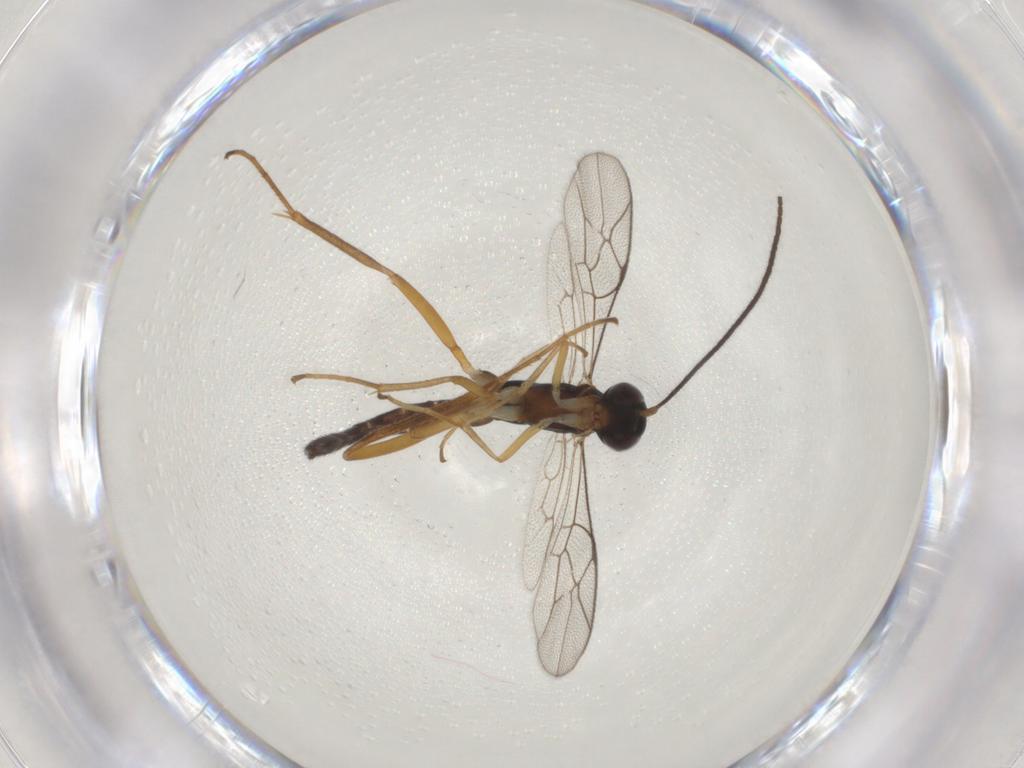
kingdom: Animalia
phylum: Arthropoda
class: Insecta
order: Hymenoptera
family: Ichneumonidae
